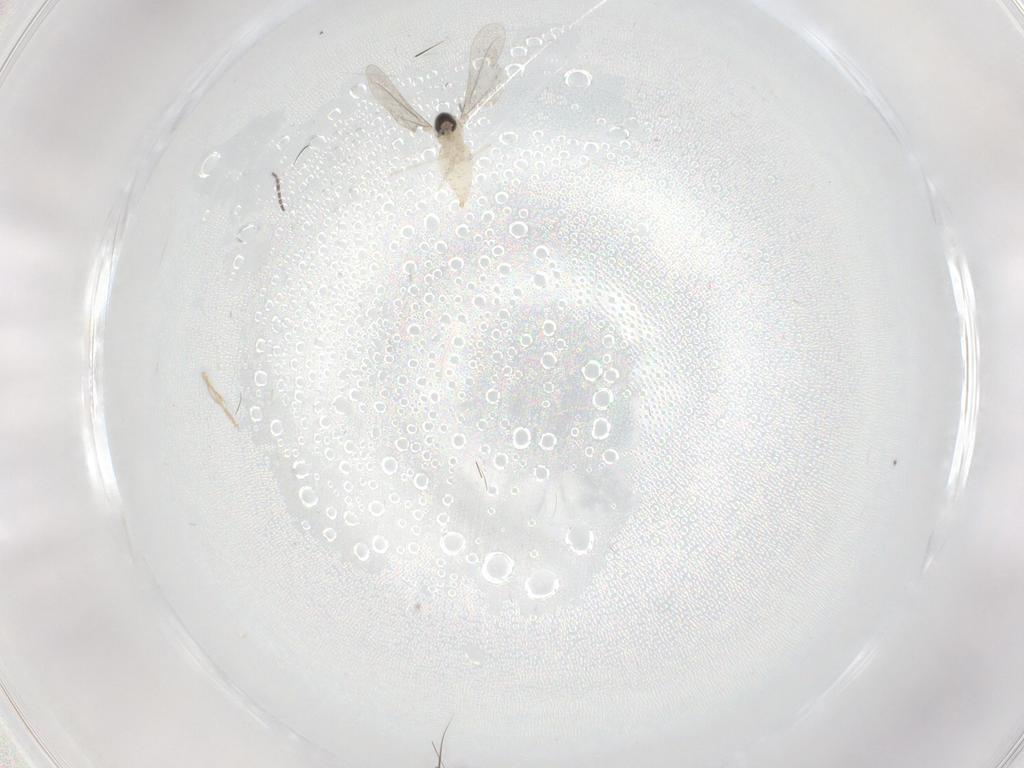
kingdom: Animalia
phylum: Arthropoda
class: Insecta
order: Diptera
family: Cecidomyiidae
